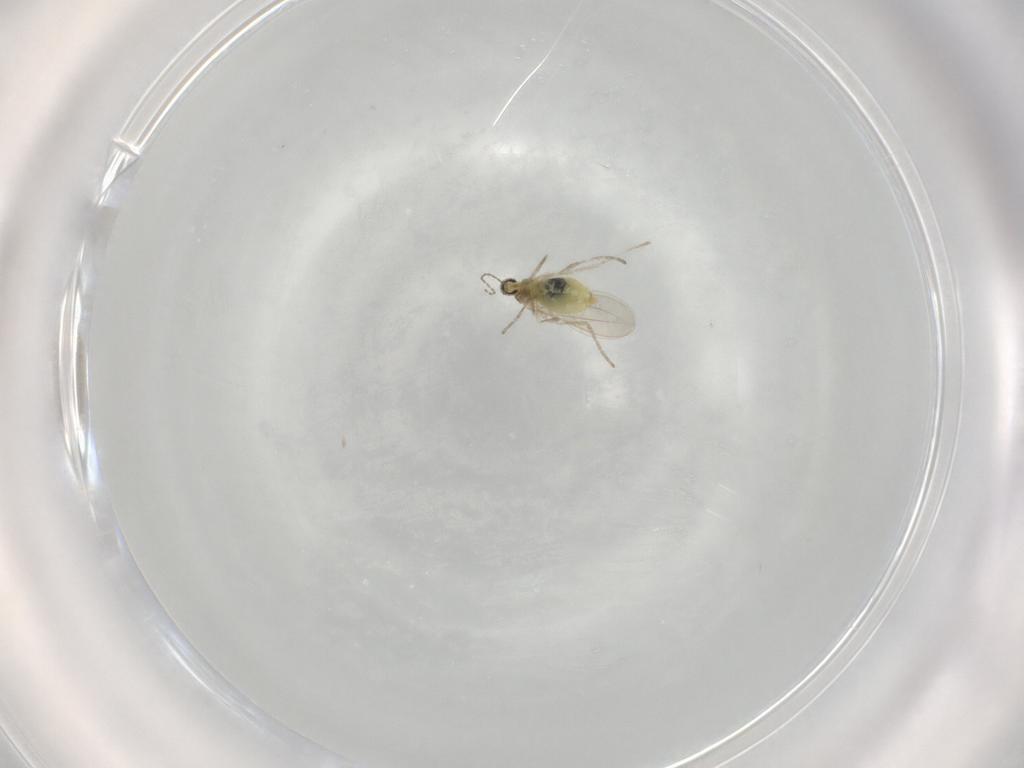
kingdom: Animalia
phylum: Arthropoda
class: Insecta
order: Diptera
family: Cecidomyiidae
